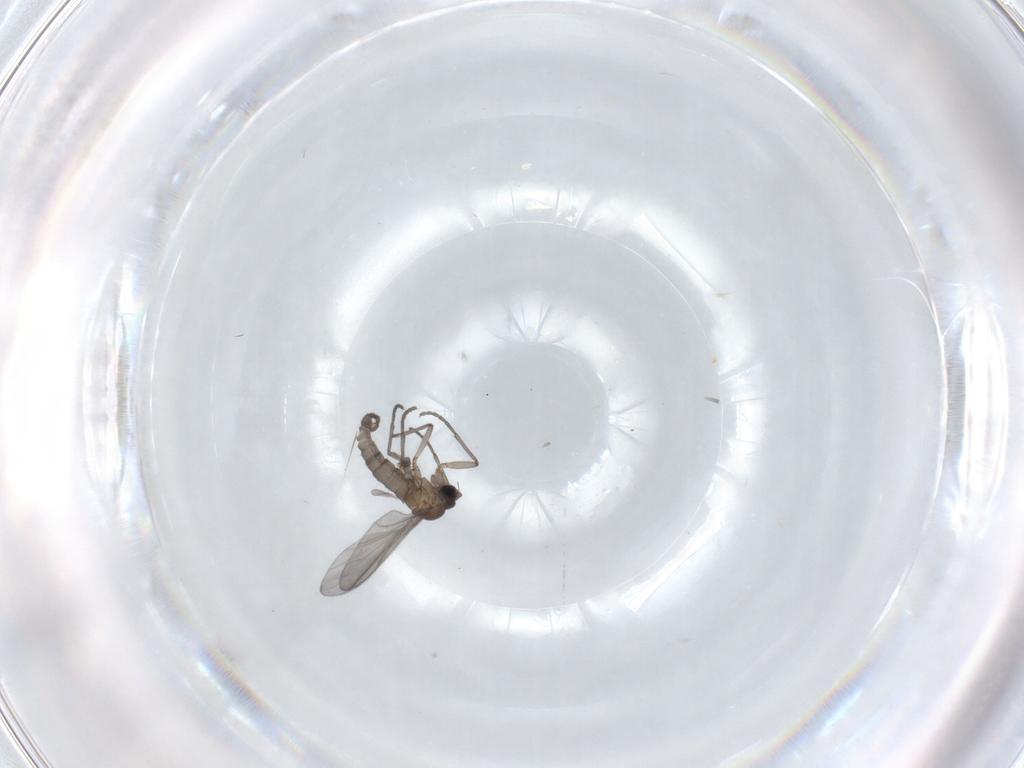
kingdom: Animalia
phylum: Arthropoda
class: Insecta
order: Diptera
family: Sciaridae
